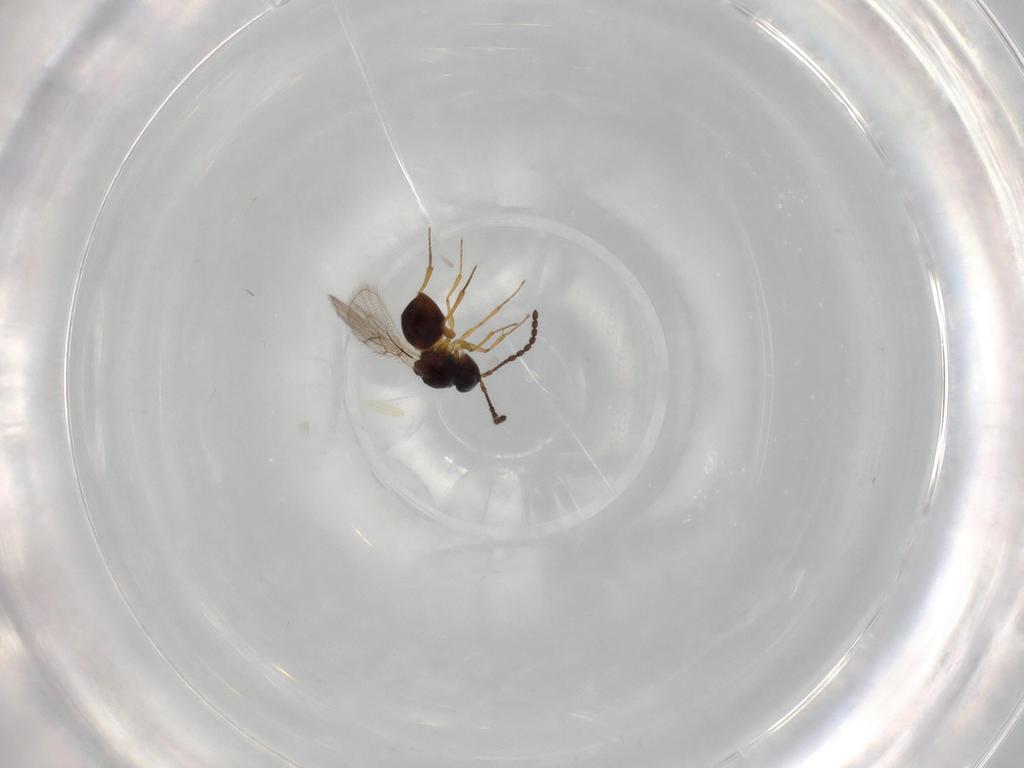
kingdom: Animalia
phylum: Arthropoda
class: Insecta
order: Hymenoptera
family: Figitidae
